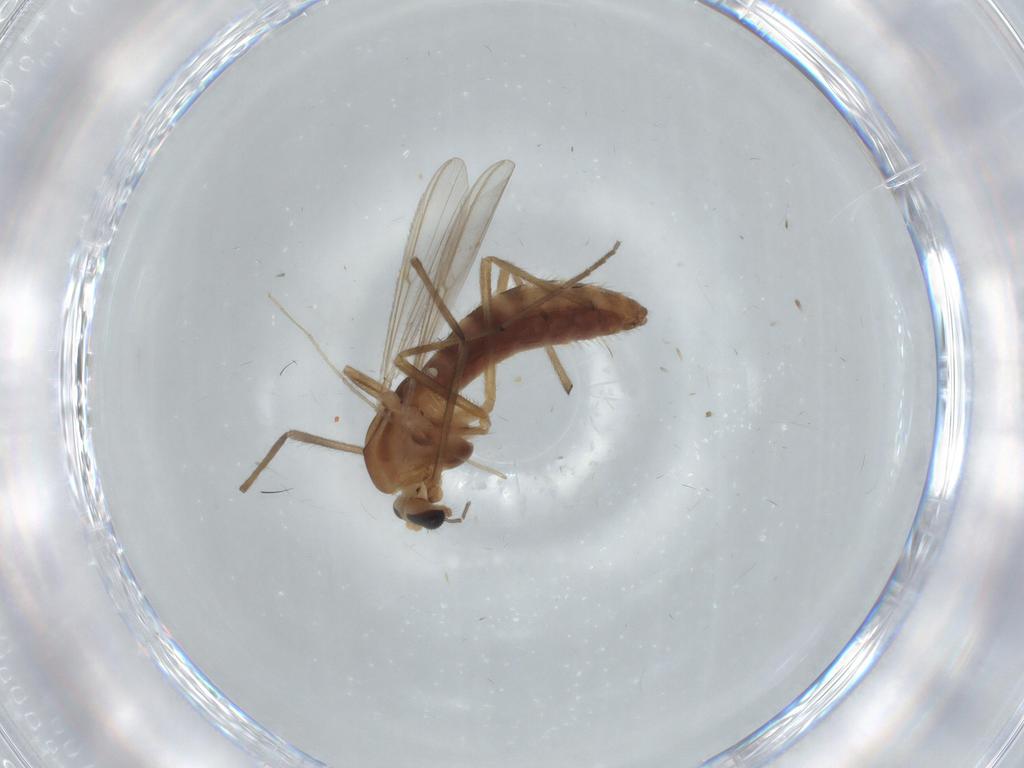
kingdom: Animalia
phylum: Arthropoda
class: Insecta
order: Diptera
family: Chironomidae
